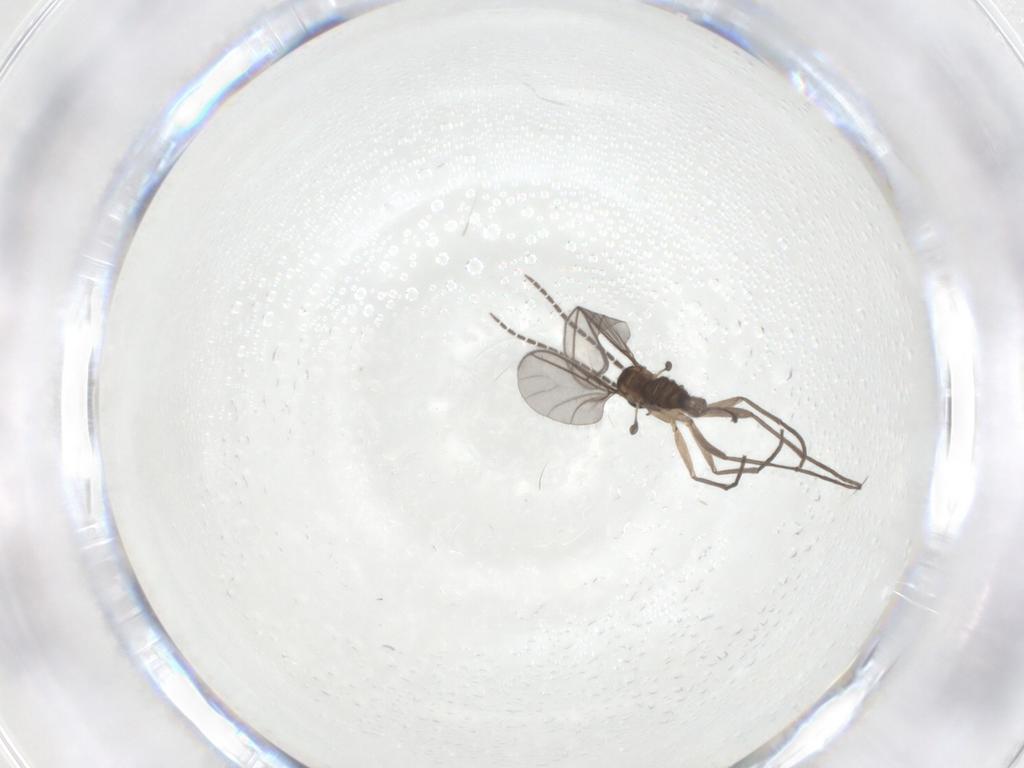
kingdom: Animalia
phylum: Arthropoda
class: Insecta
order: Diptera
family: Sciaridae
